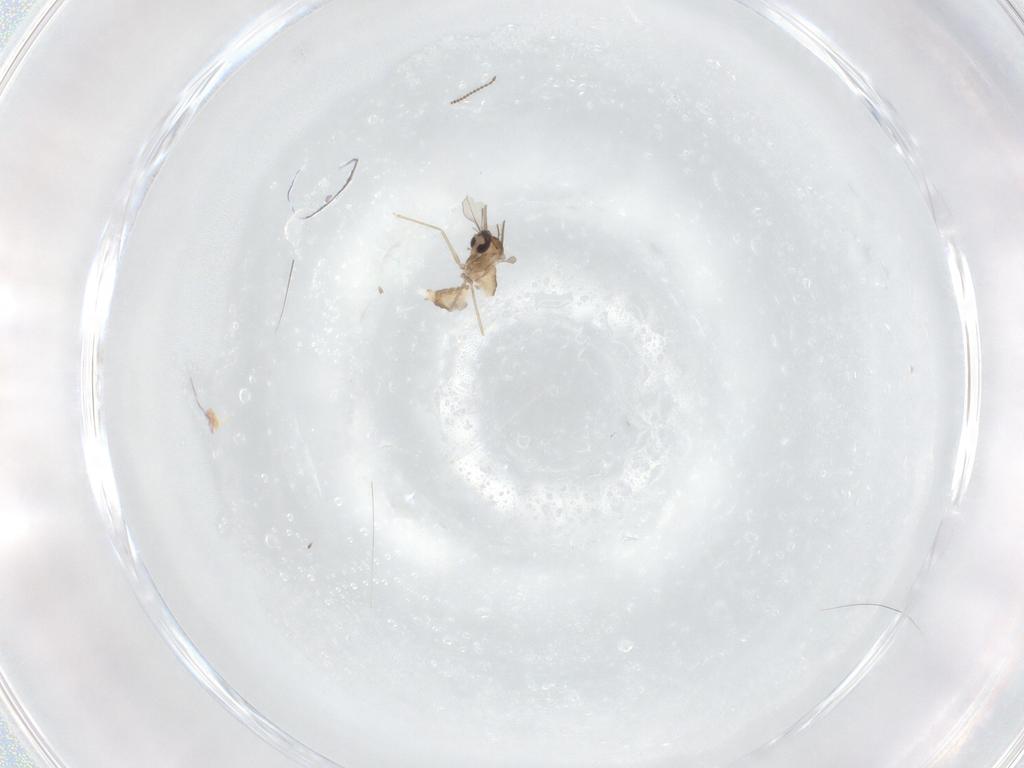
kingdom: Animalia
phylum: Arthropoda
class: Insecta
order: Diptera
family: Cecidomyiidae
